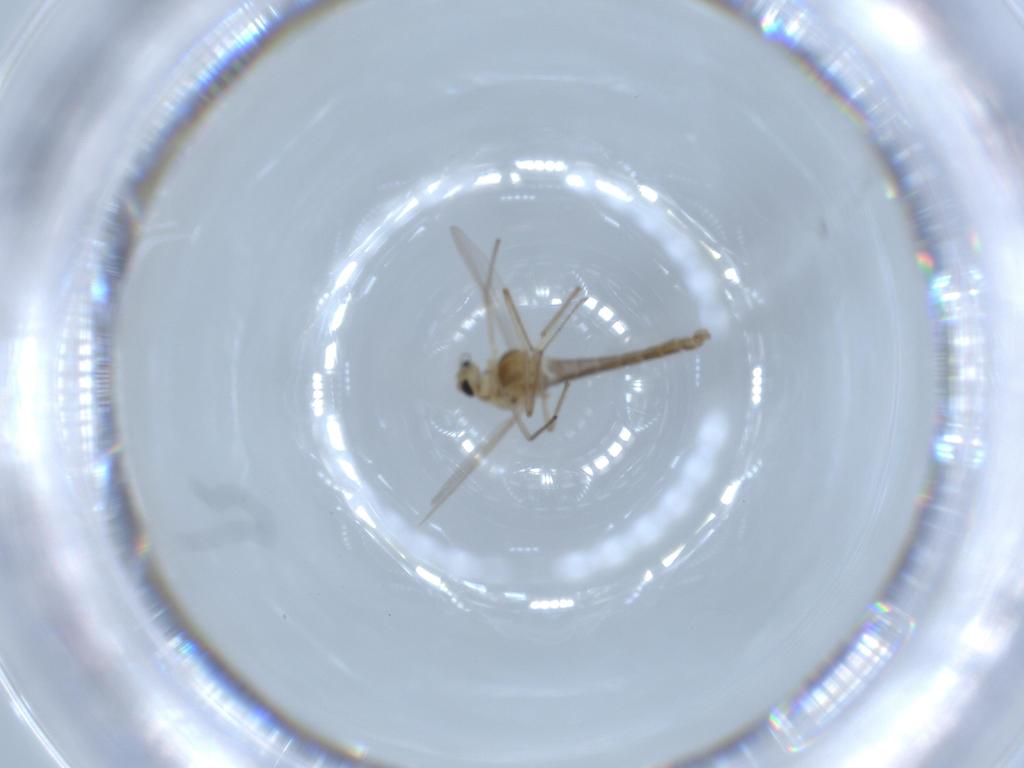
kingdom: Animalia
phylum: Arthropoda
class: Insecta
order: Diptera
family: Chironomidae
